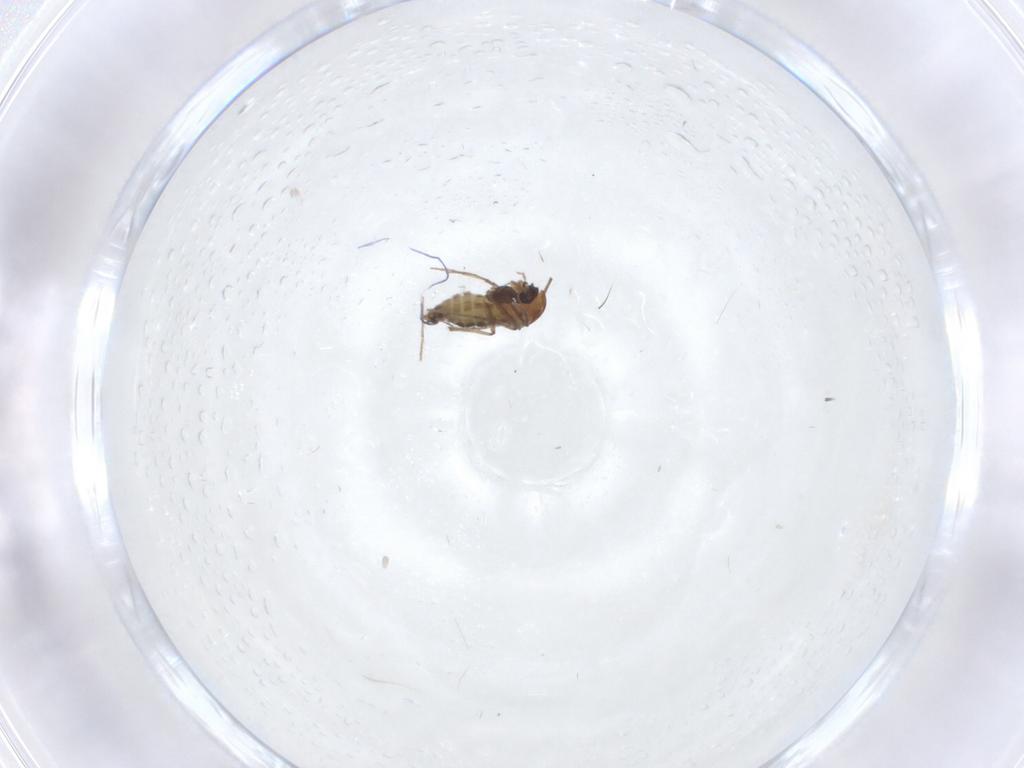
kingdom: Animalia
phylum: Arthropoda
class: Insecta
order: Diptera
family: Chironomidae
